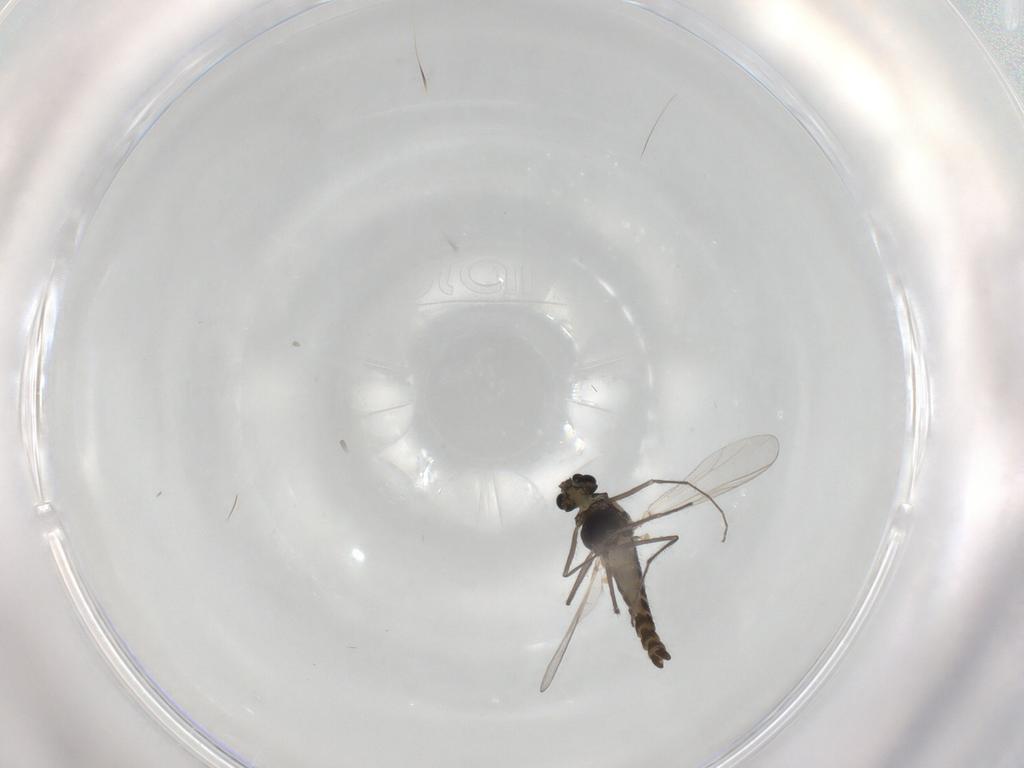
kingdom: Animalia
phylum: Arthropoda
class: Insecta
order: Diptera
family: Chironomidae
